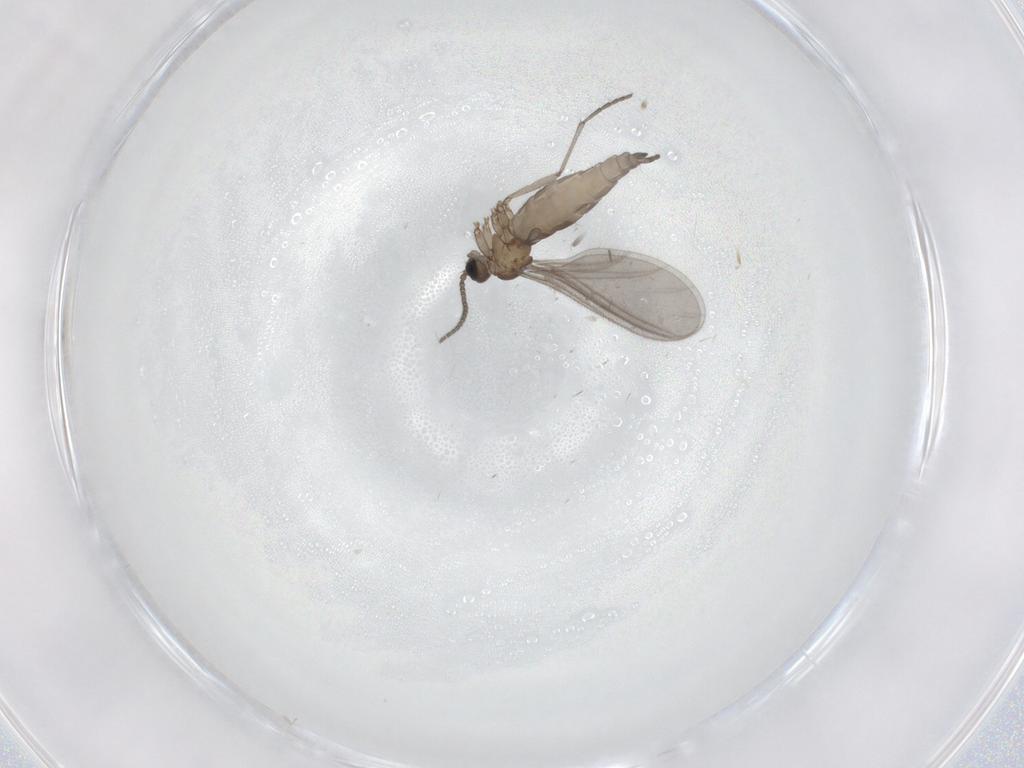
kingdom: Animalia
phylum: Arthropoda
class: Insecta
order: Diptera
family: Sciaridae
